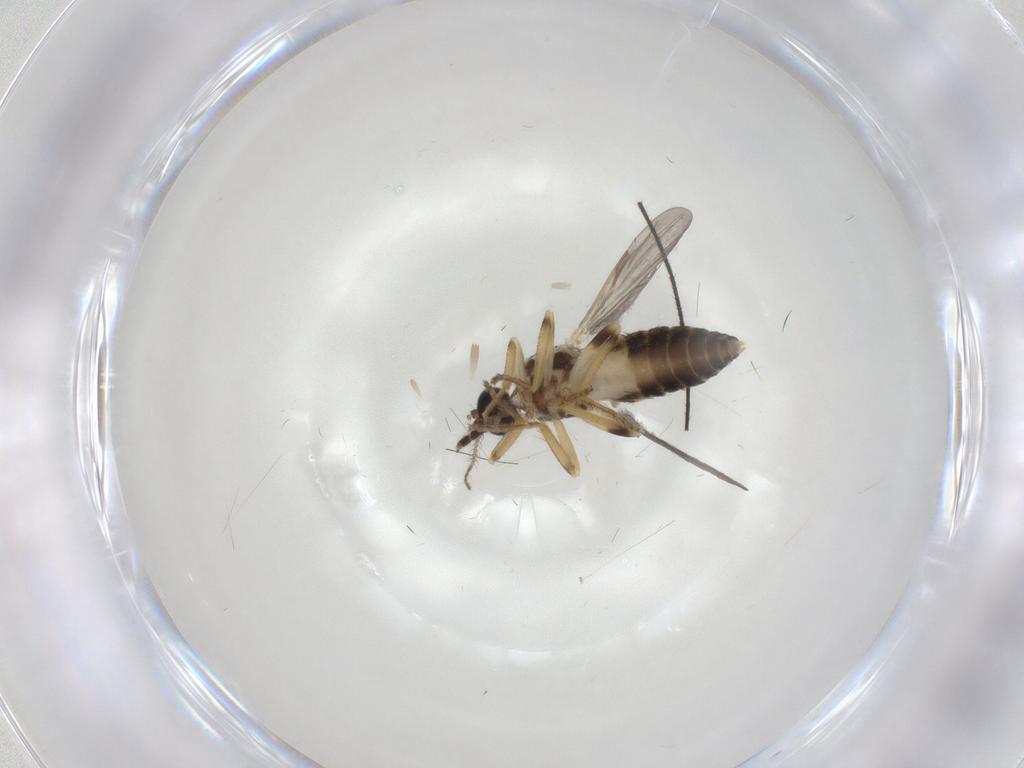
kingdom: Animalia
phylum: Arthropoda
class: Insecta
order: Diptera
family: Ceratopogonidae
